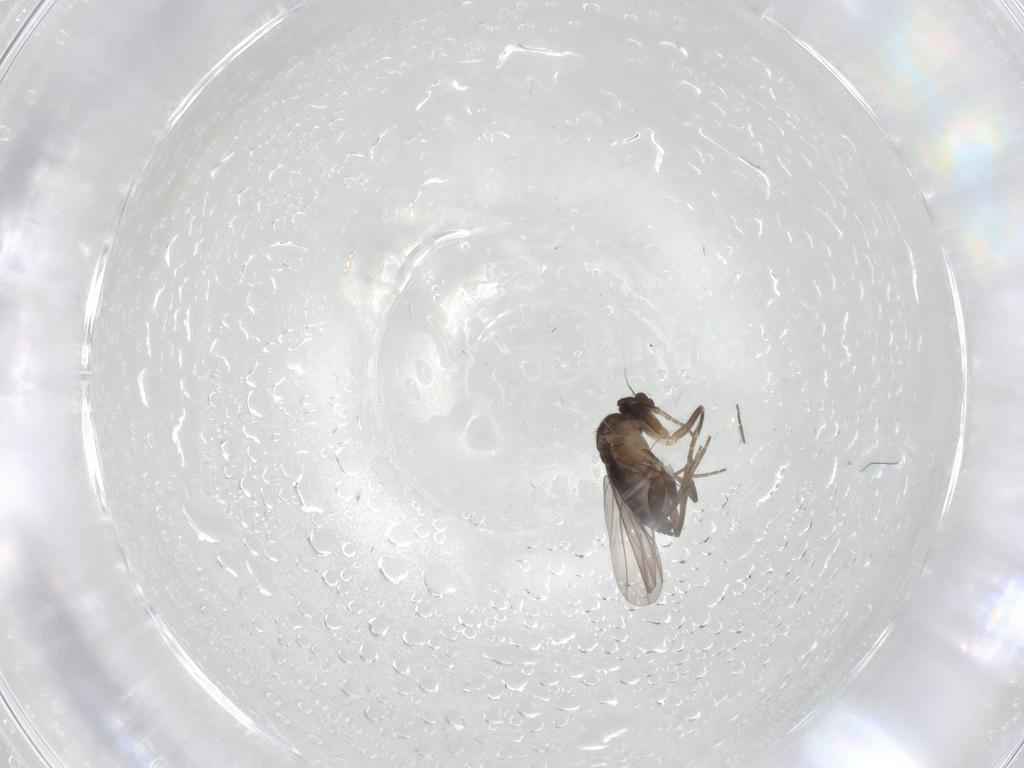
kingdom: Animalia
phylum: Arthropoda
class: Insecta
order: Diptera
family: Phoridae
